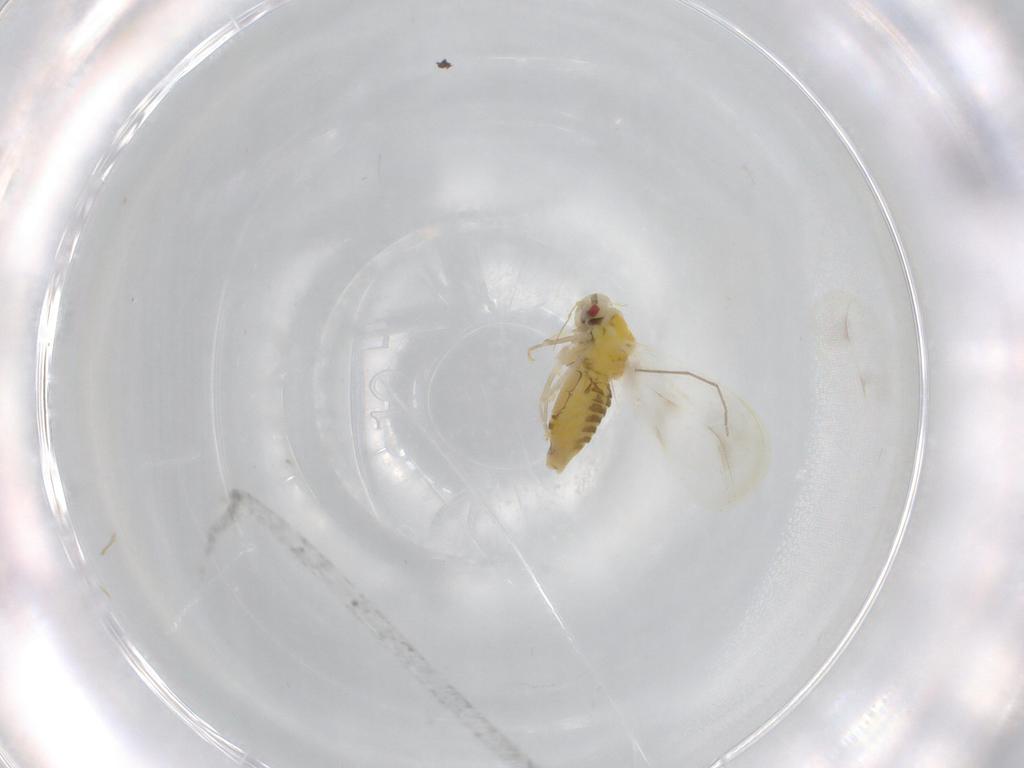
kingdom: Animalia
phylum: Arthropoda
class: Insecta
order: Hemiptera
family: Aleyrodidae
